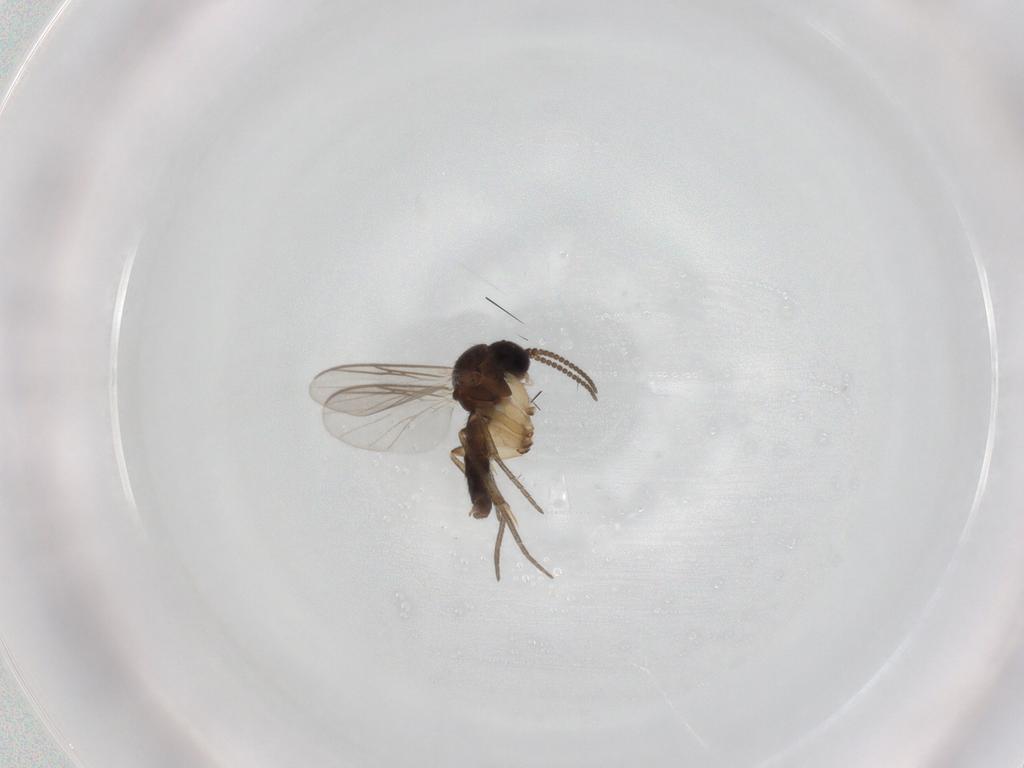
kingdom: Animalia
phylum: Arthropoda
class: Insecta
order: Diptera
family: Mycetophilidae
